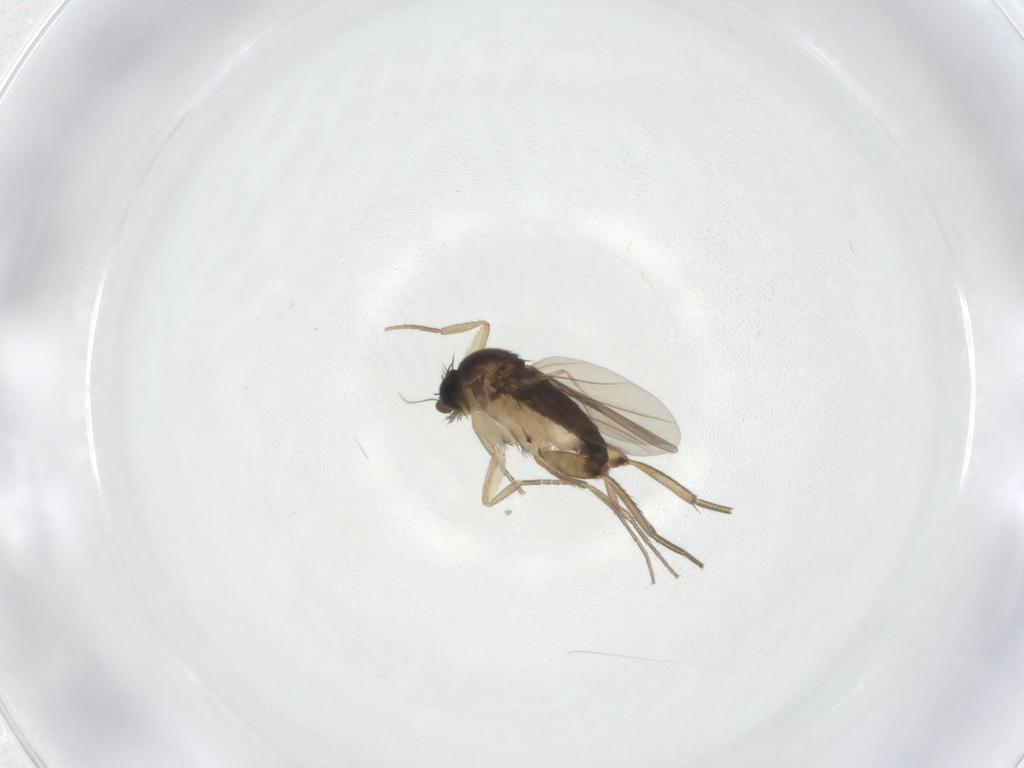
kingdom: Animalia
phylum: Arthropoda
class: Insecta
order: Diptera
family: Phoridae
